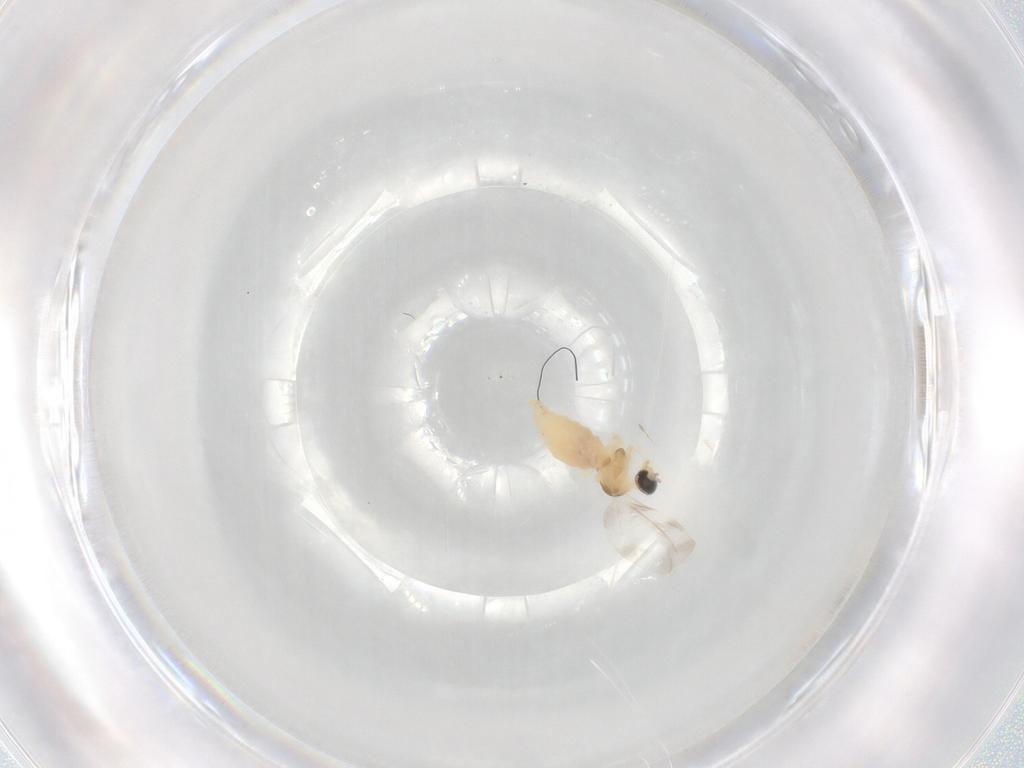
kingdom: Animalia
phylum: Arthropoda
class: Insecta
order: Diptera
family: Cecidomyiidae
